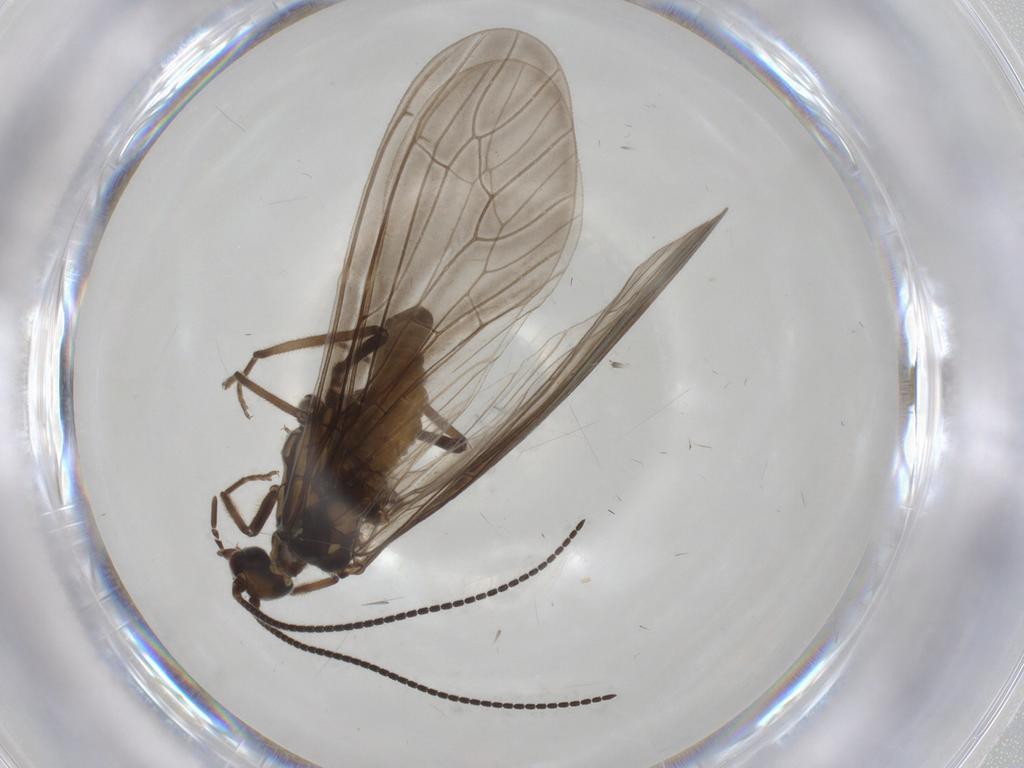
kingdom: Animalia
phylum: Arthropoda
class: Insecta
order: Neuroptera
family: Coniopterygidae
